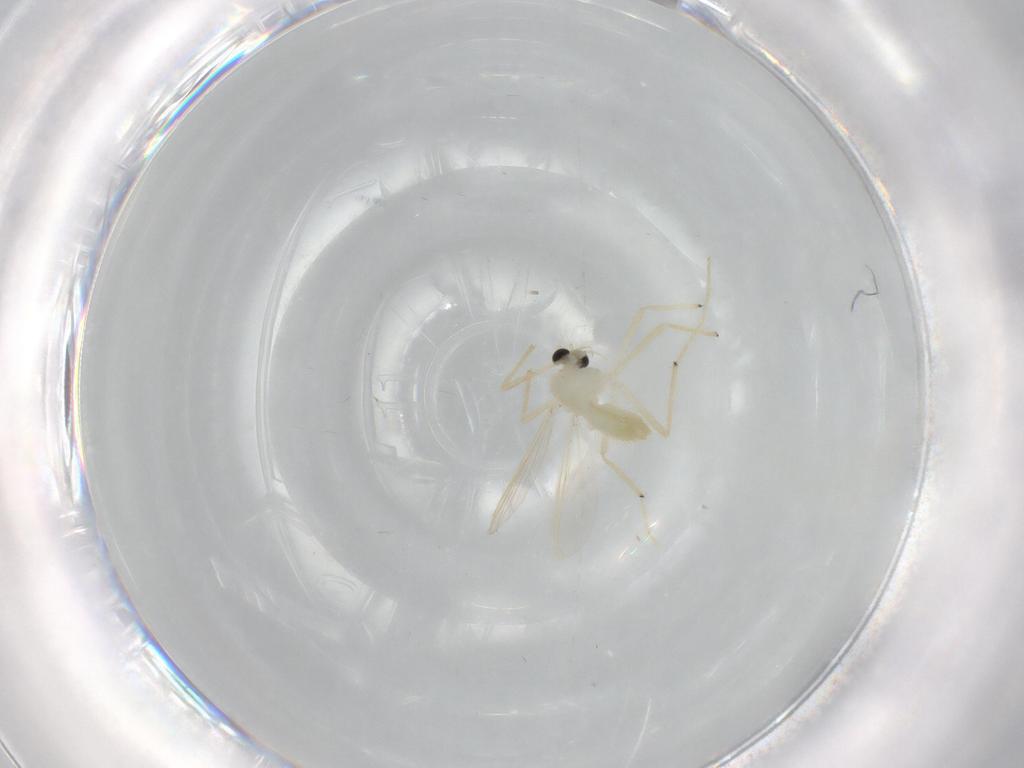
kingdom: Animalia
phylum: Arthropoda
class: Insecta
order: Diptera
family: Chironomidae
